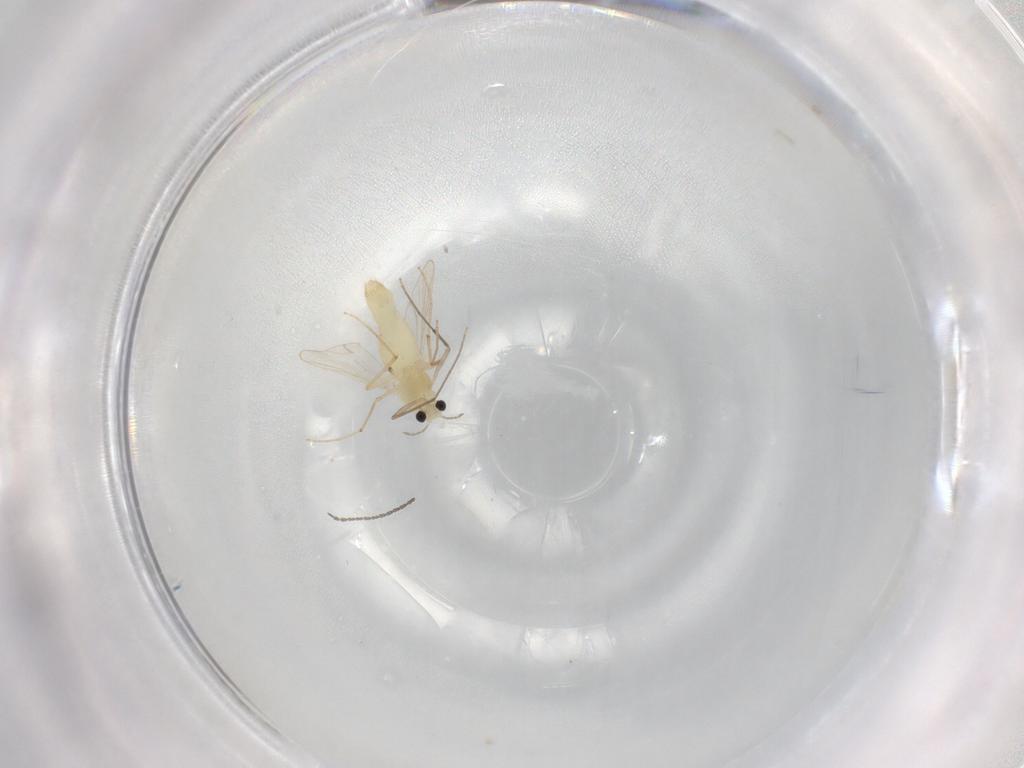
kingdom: Animalia
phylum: Arthropoda
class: Insecta
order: Diptera
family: Chironomidae
